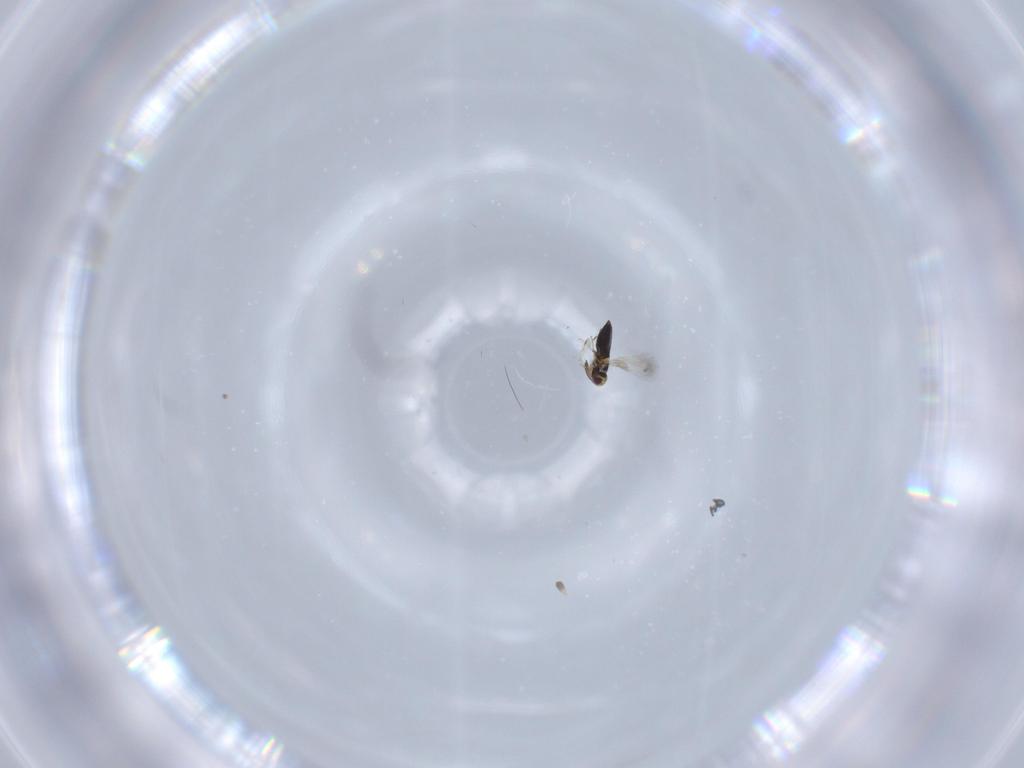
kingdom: Animalia
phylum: Arthropoda
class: Insecta
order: Hymenoptera
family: Signiphoridae
